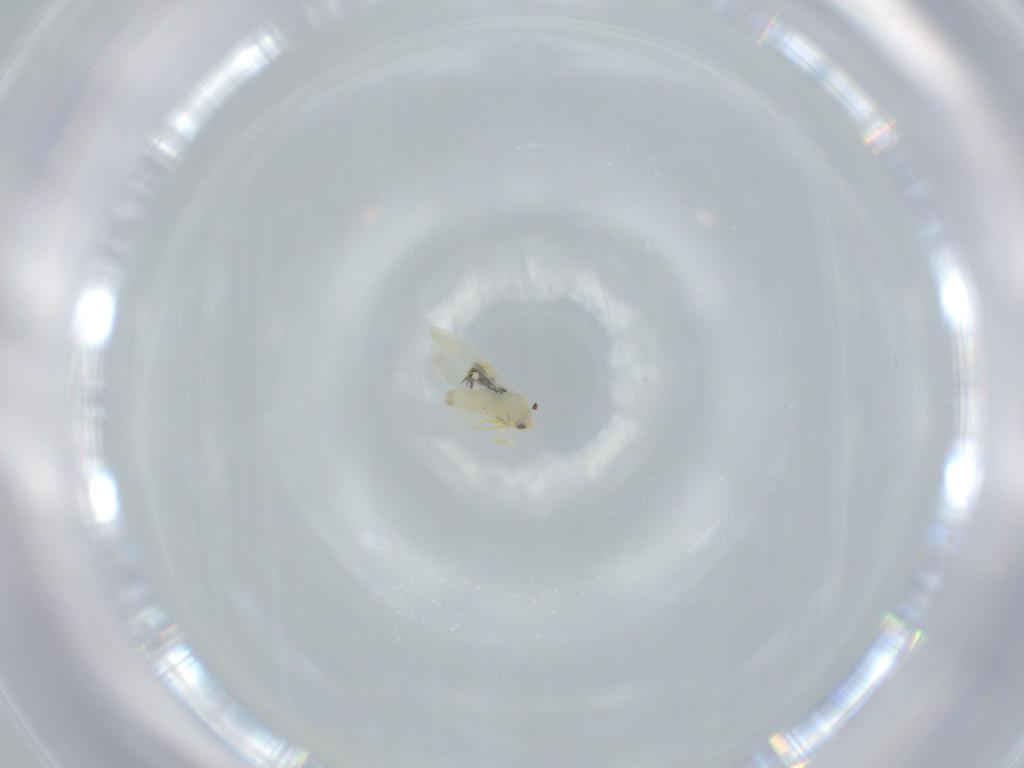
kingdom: Animalia
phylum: Arthropoda
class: Insecta
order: Hemiptera
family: Aleyrodidae
